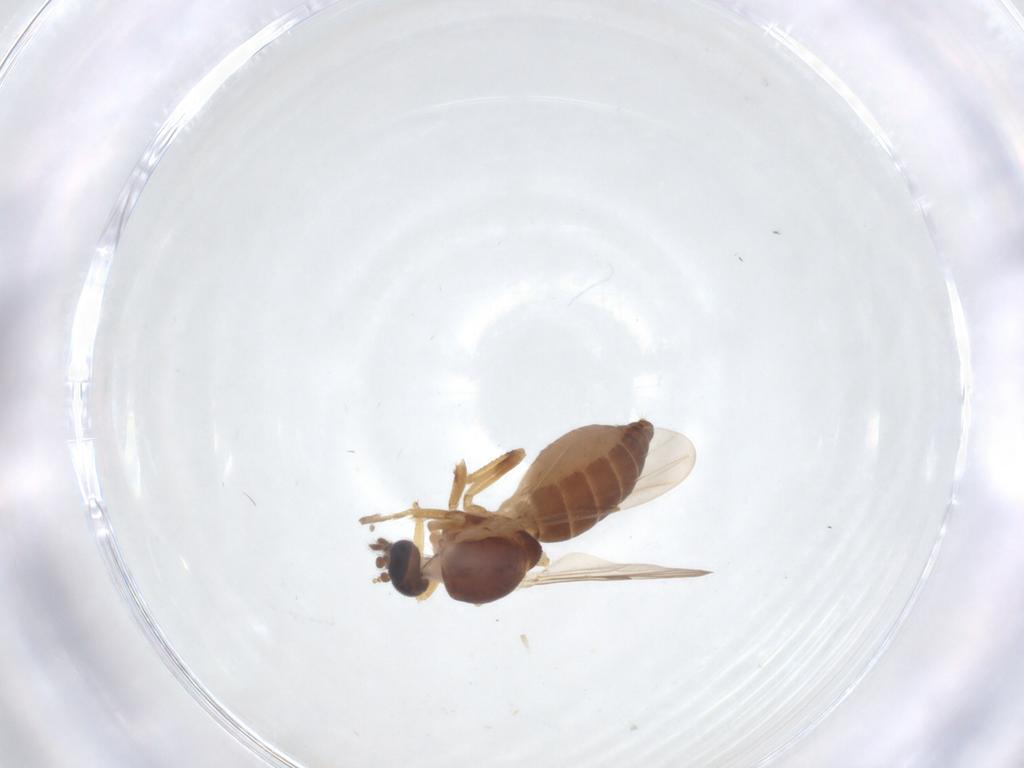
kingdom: Animalia
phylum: Arthropoda
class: Insecta
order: Diptera
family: Ceratopogonidae
